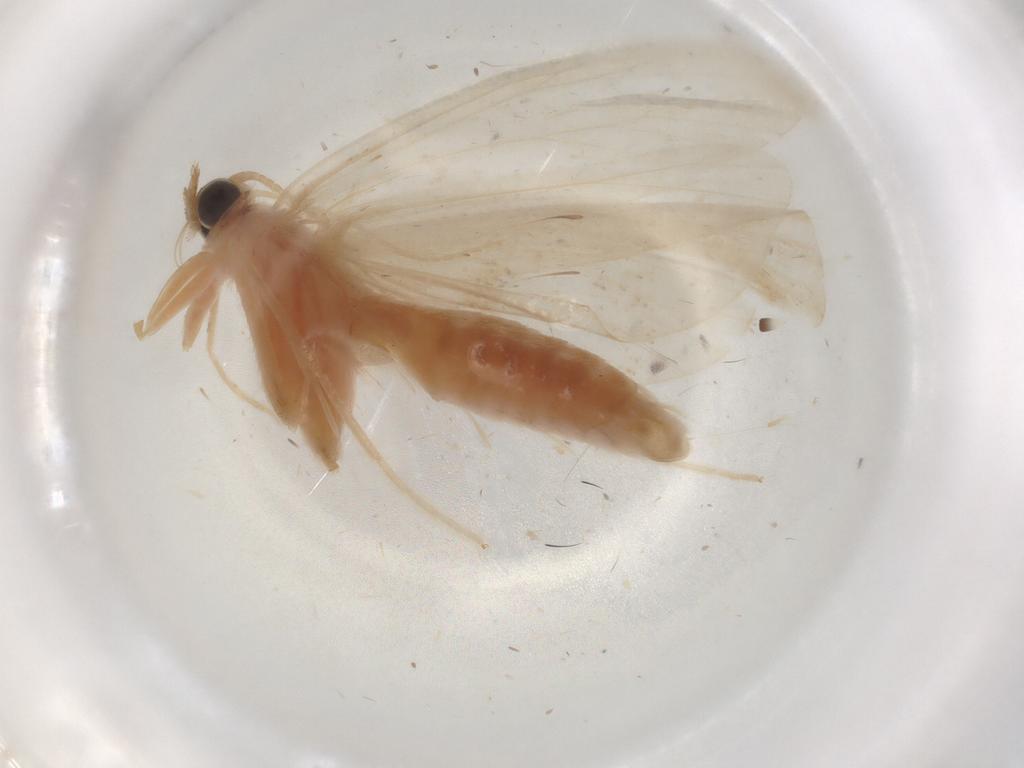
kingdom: Animalia
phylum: Arthropoda
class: Insecta
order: Lepidoptera
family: Crambidae
